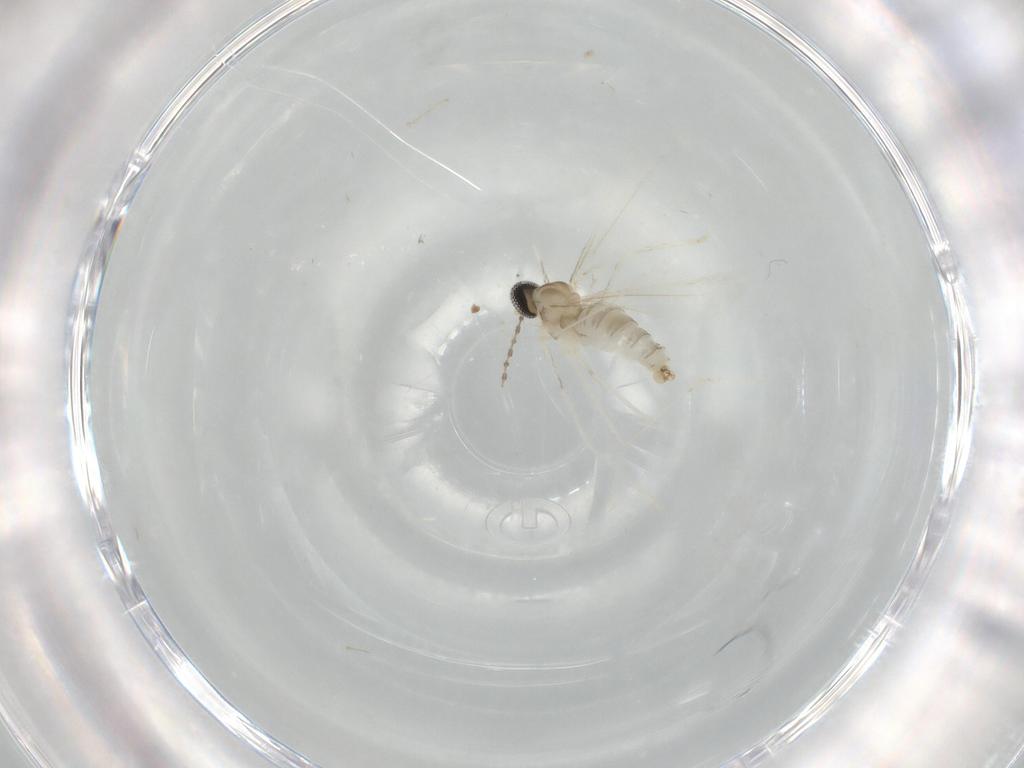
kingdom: Animalia
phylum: Arthropoda
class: Insecta
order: Diptera
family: Cecidomyiidae
